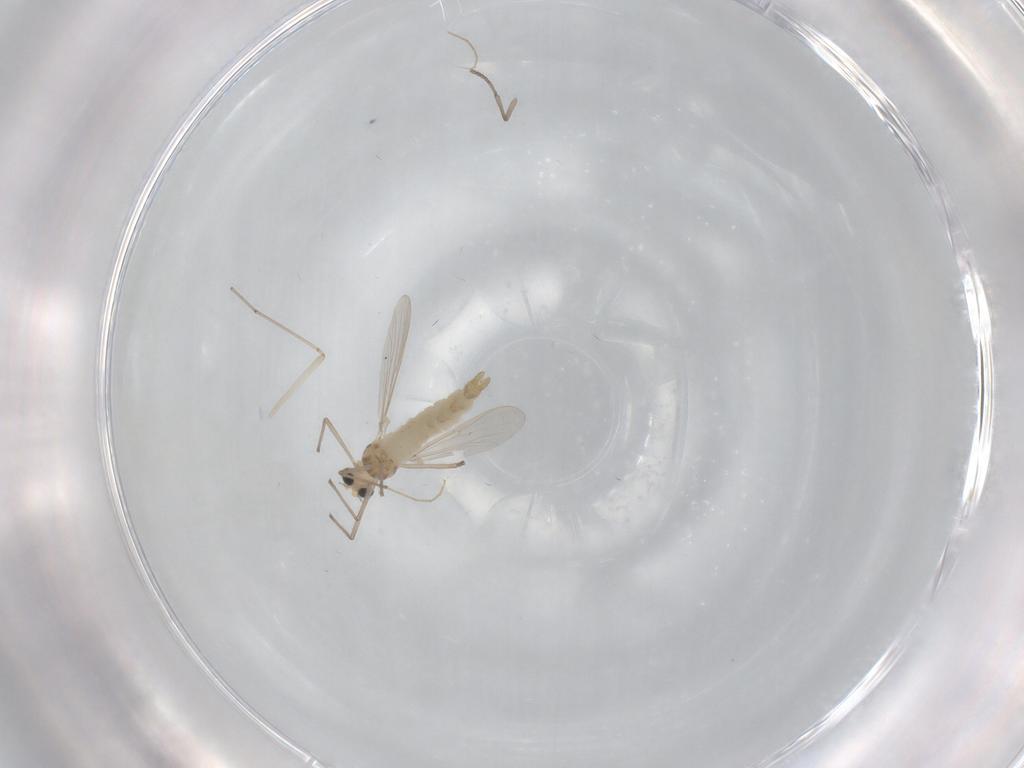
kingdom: Animalia
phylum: Arthropoda
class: Insecta
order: Diptera
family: Cecidomyiidae
